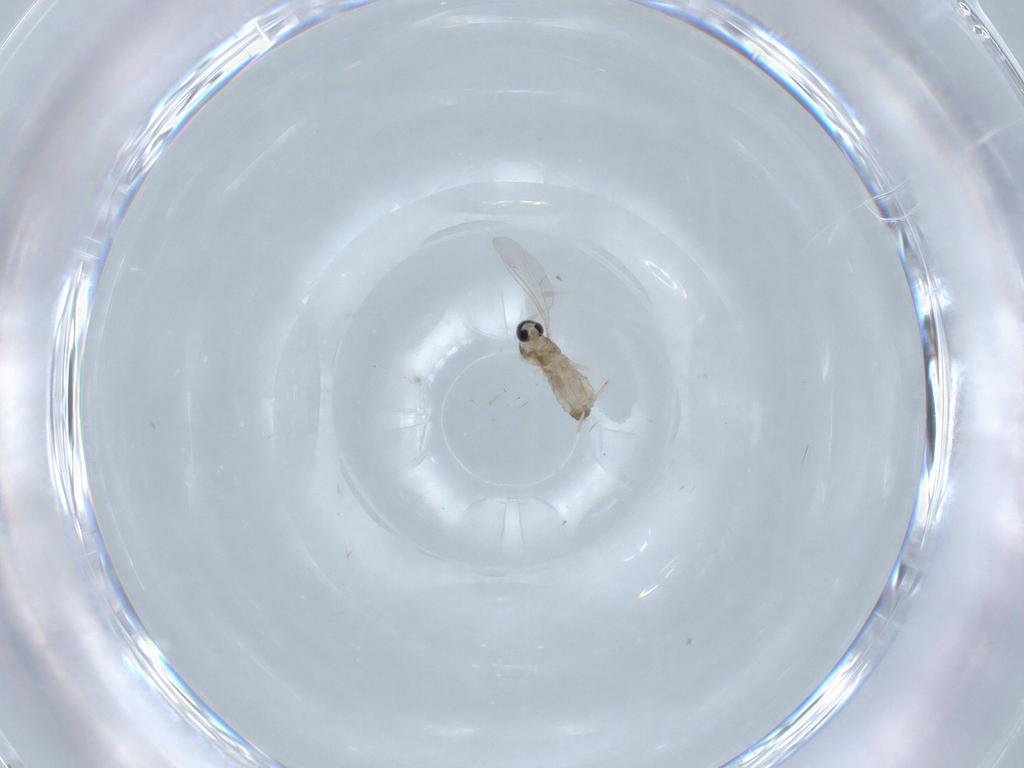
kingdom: Animalia
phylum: Arthropoda
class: Insecta
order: Diptera
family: Cecidomyiidae
